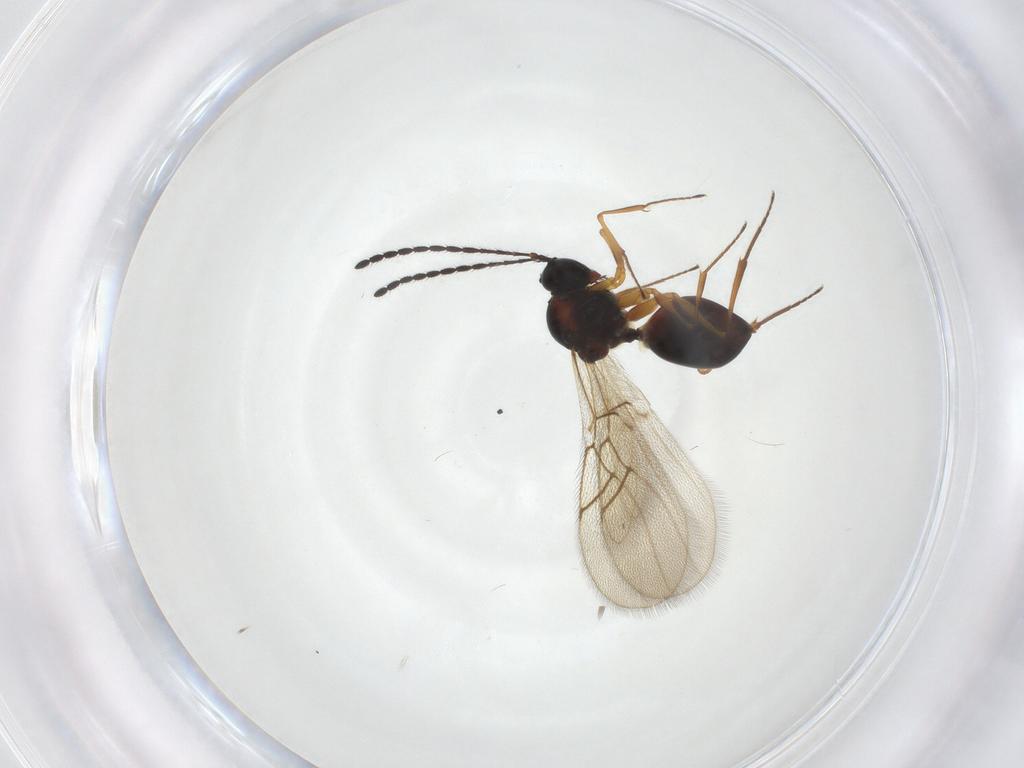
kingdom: Animalia
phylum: Arthropoda
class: Insecta
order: Hymenoptera
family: Figitidae
